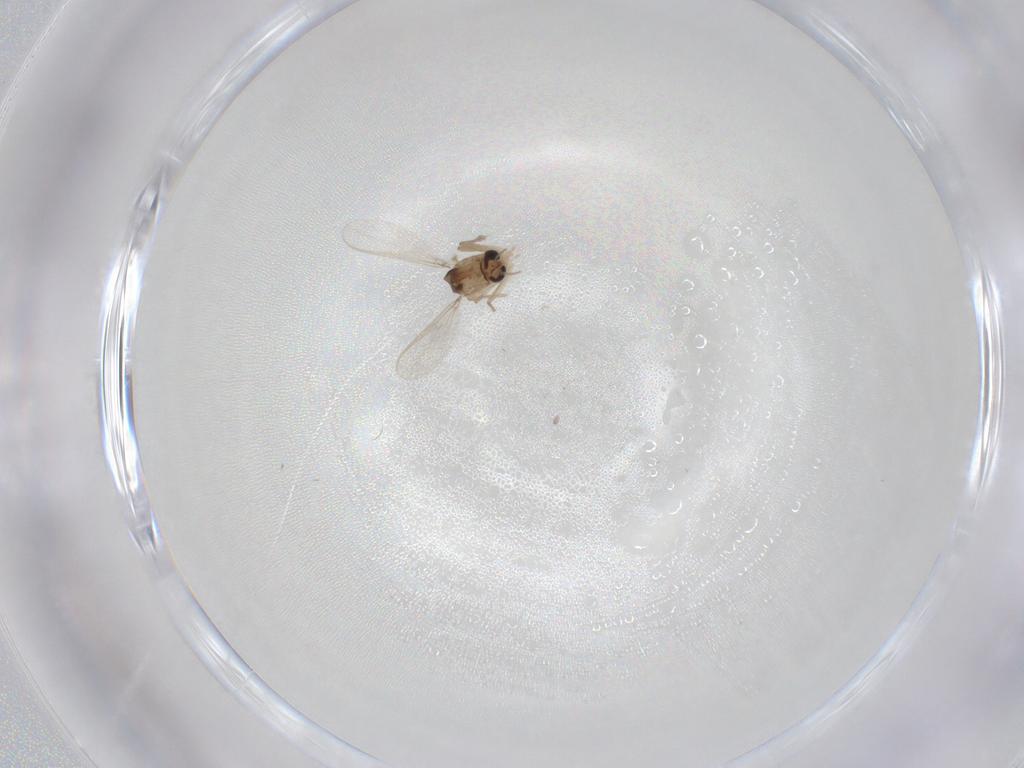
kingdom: Animalia
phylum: Arthropoda
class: Insecta
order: Diptera
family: Chironomidae
